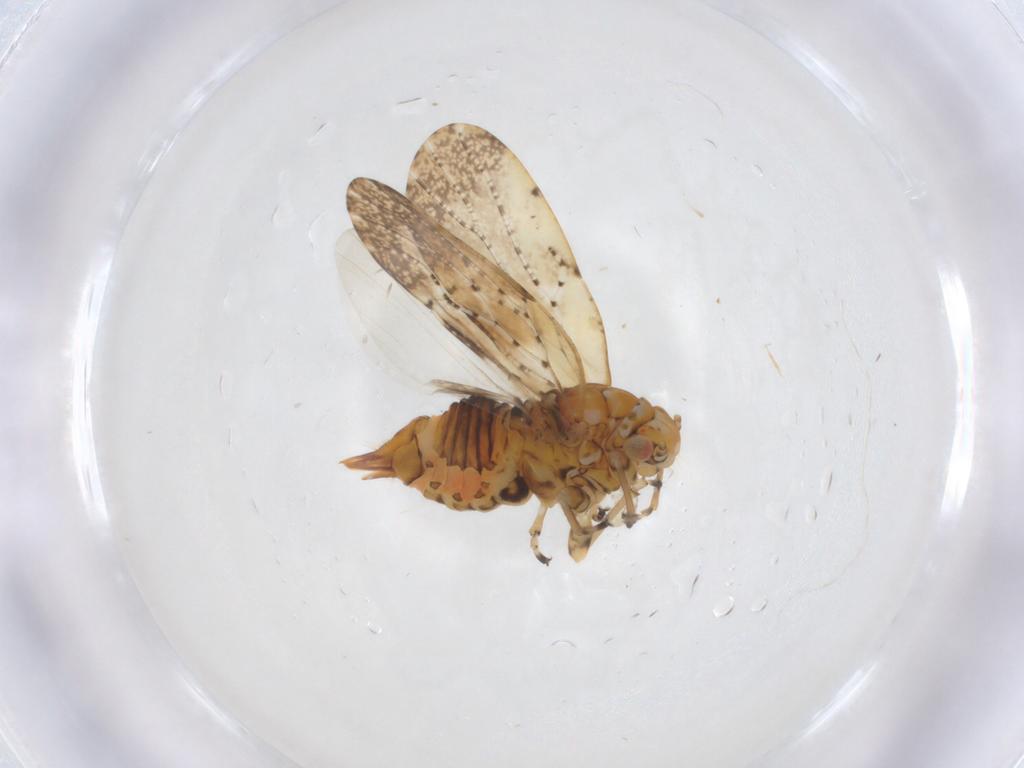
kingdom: Animalia
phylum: Arthropoda
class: Insecta
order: Hemiptera
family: Liviidae
